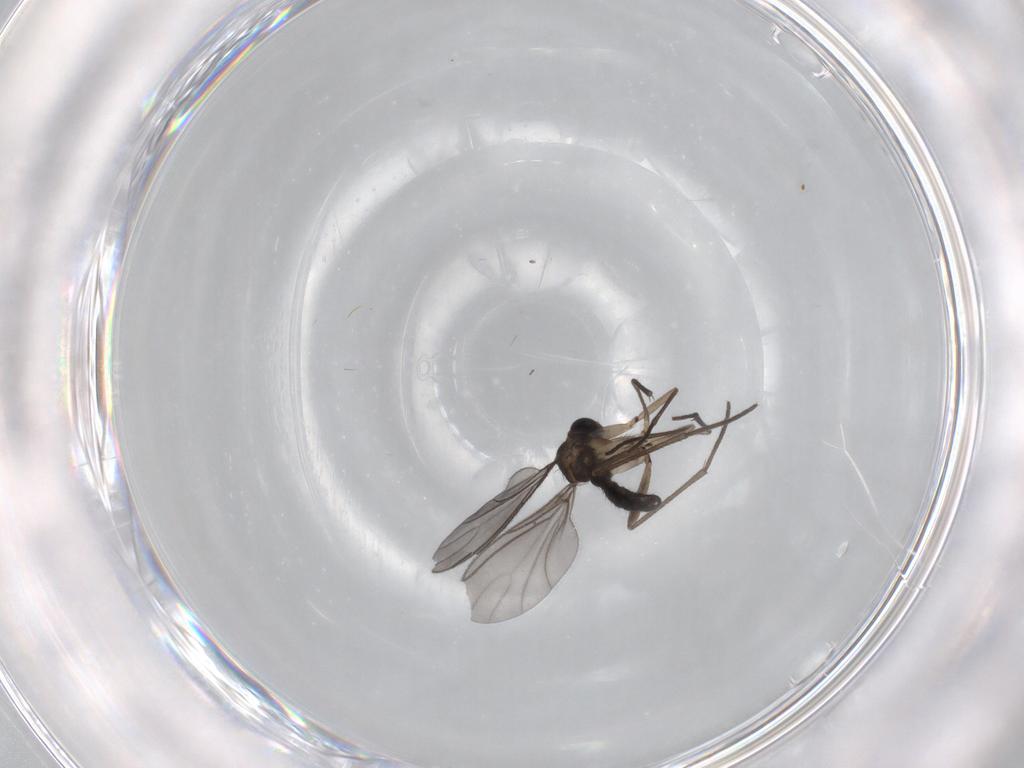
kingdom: Animalia
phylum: Arthropoda
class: Insecta
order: Diptera
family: Sciaridae
